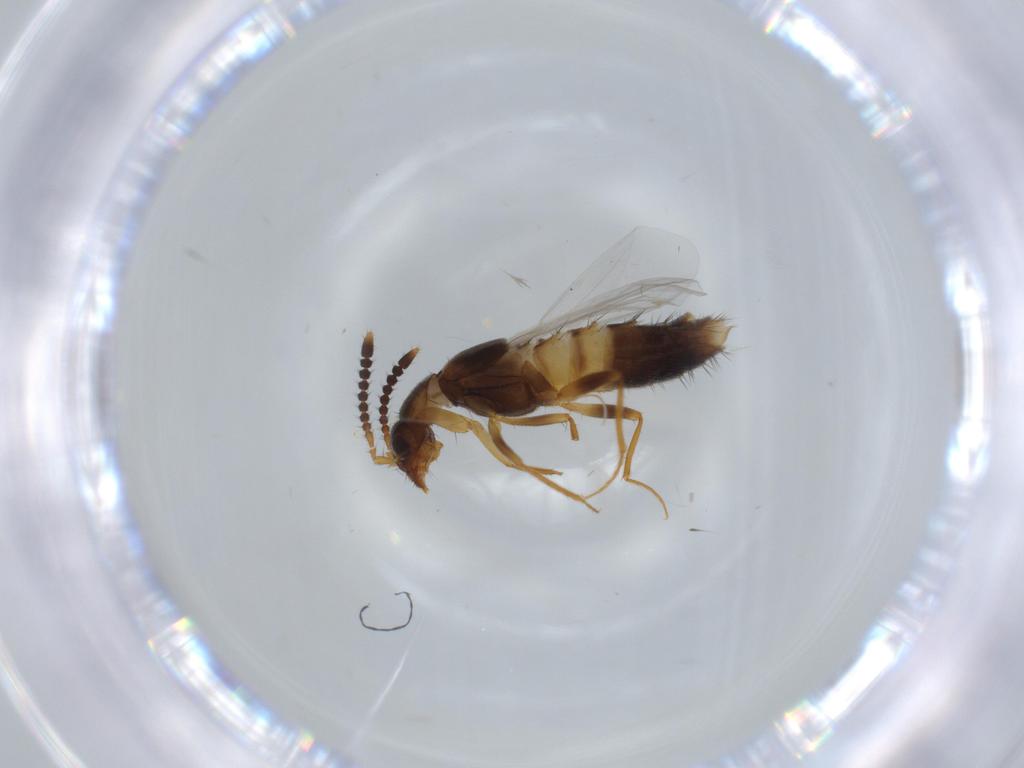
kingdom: Animalia
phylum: Arthropoda
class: Insecta
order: Coleoptera
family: Staphylinidae
